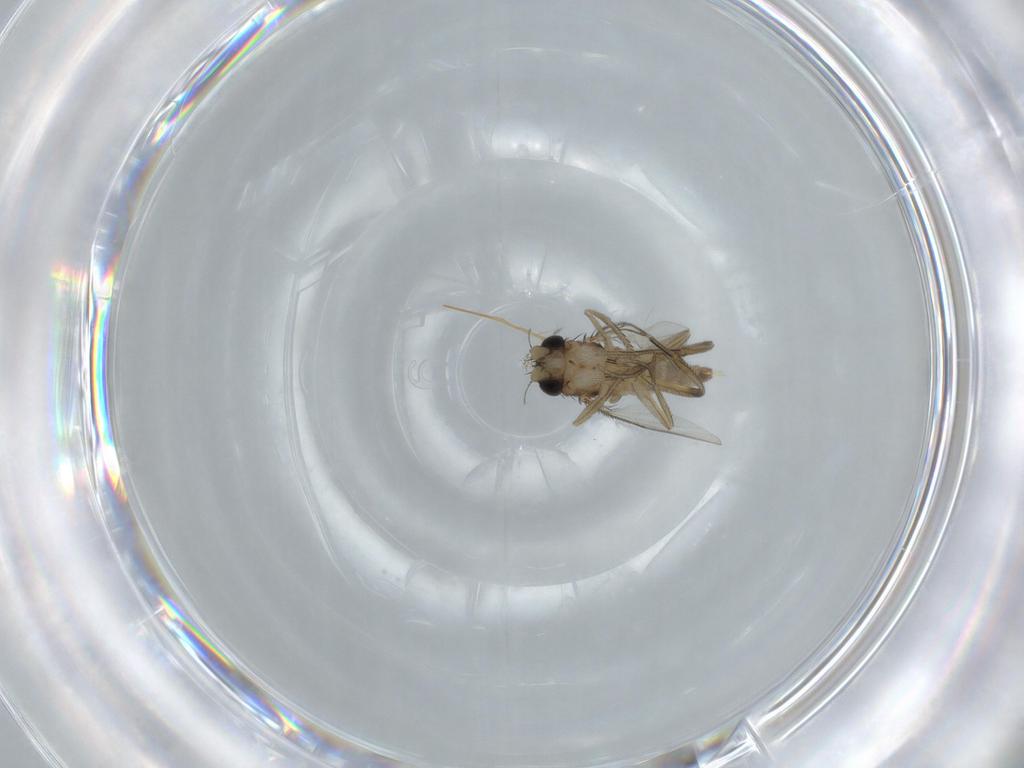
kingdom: Animalia
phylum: Arthropoda
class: Insecta
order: Diptera
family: Phoridae
